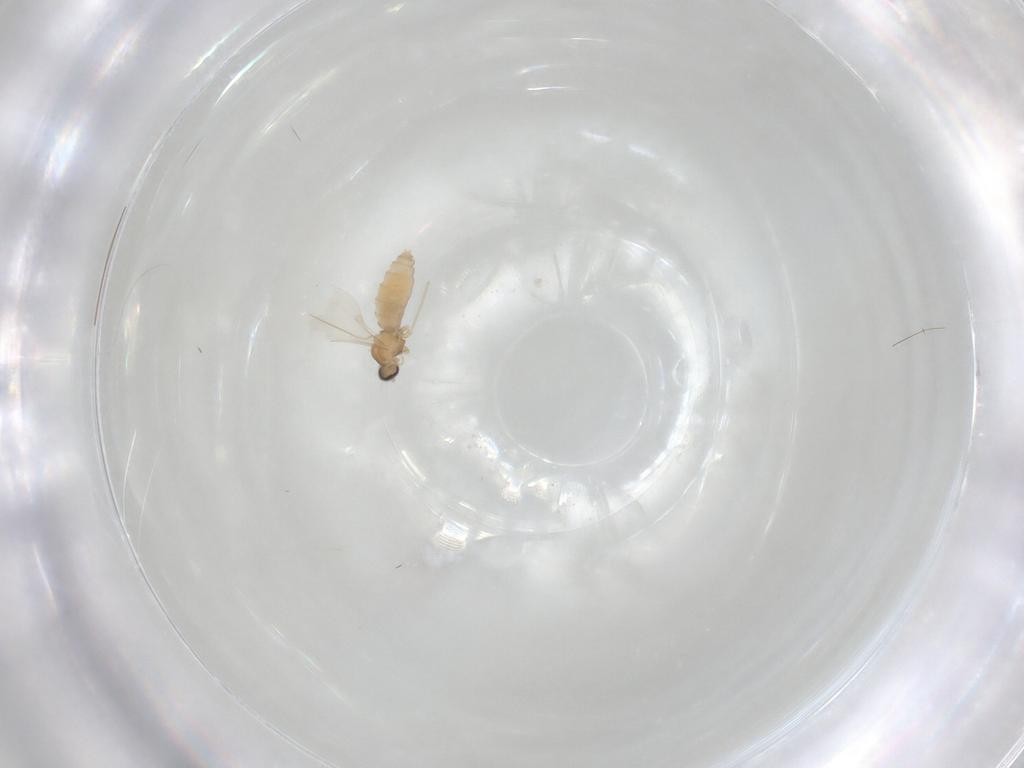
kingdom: Animalia
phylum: Arthropoda
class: Insecta
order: Diptera
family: Cecidomyiidae
